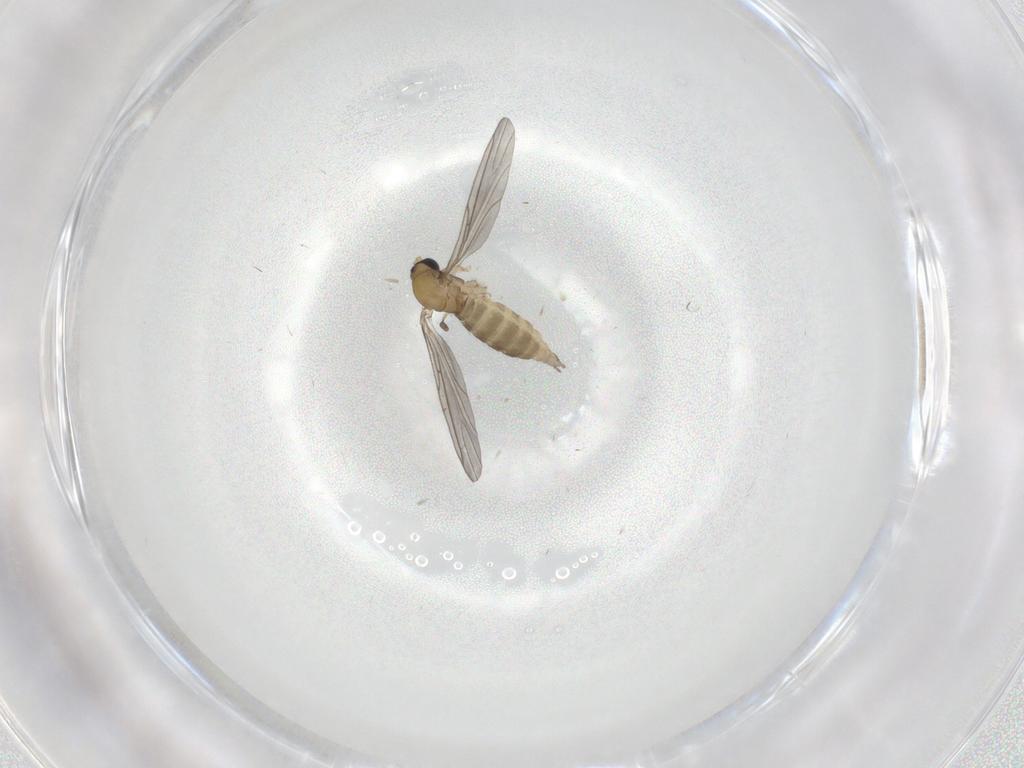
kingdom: Animalia
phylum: Arthropoda
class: Insecta
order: Diptera
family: Sciaridae
